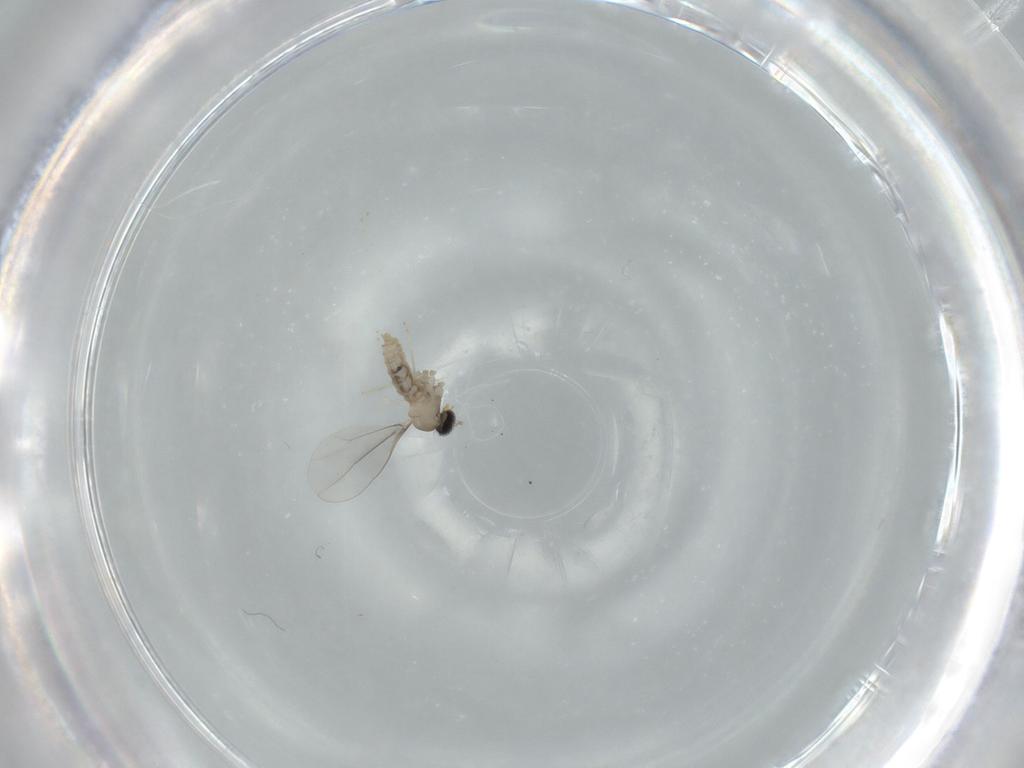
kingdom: Animalia
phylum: Arthropoda
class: Insecta
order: Diptera
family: Cecidomyiidae
